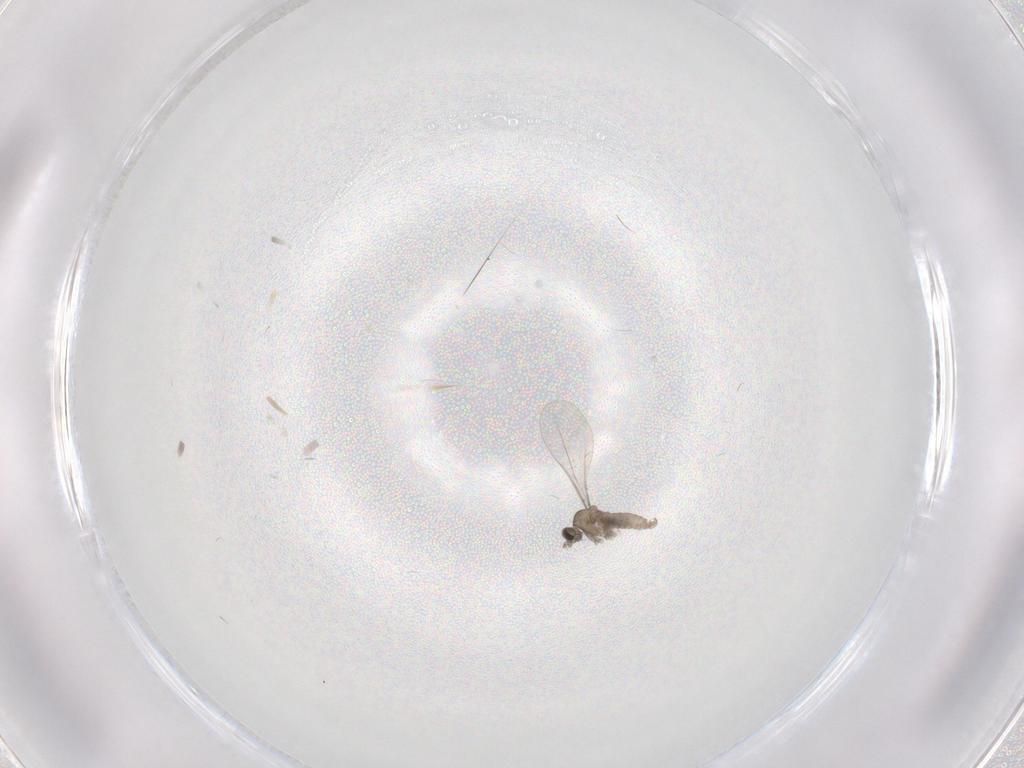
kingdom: Animalia
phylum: Arthropoda
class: Insecta
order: Diptera
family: Cecidomyiidae
